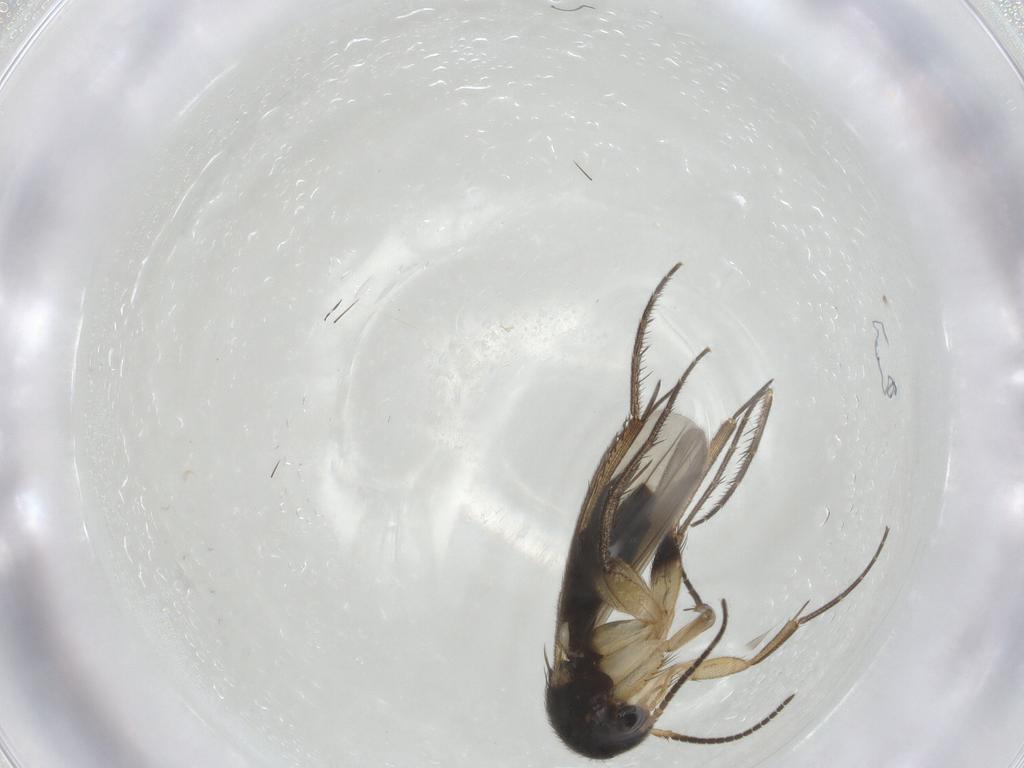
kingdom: Animalia
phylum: Arthropoda
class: Insecta
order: Diptera
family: Mycetophilidae
